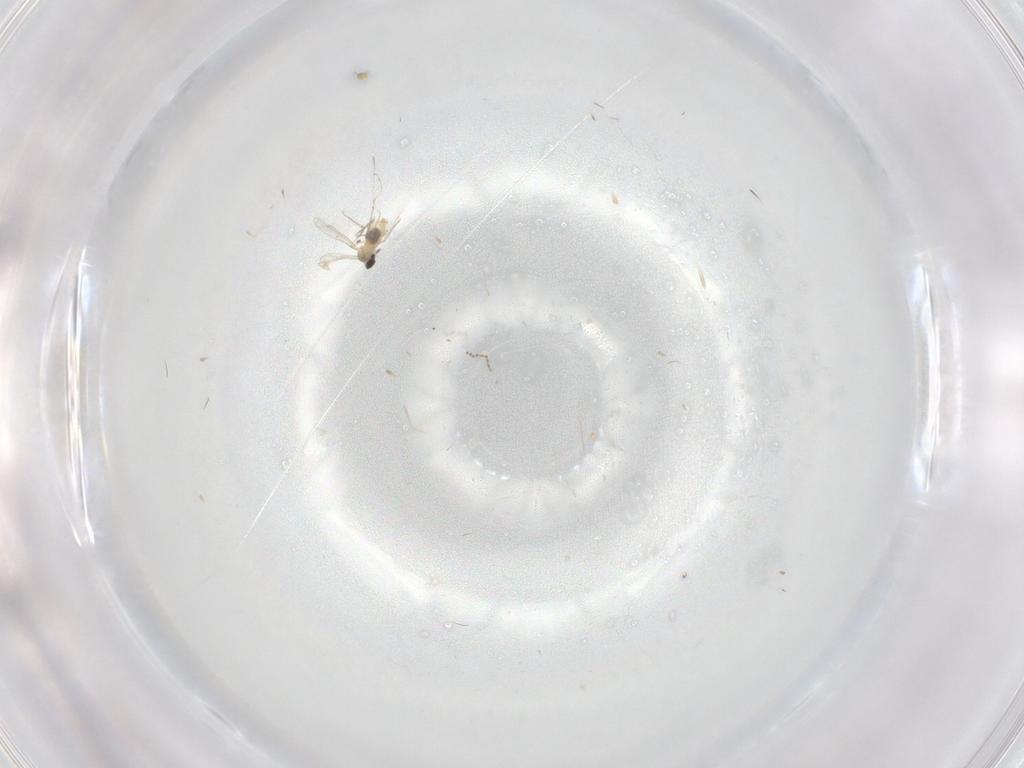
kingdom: Animalia
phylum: Arthropoda
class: Insecta
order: Diptera
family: Cecidomyiidae
